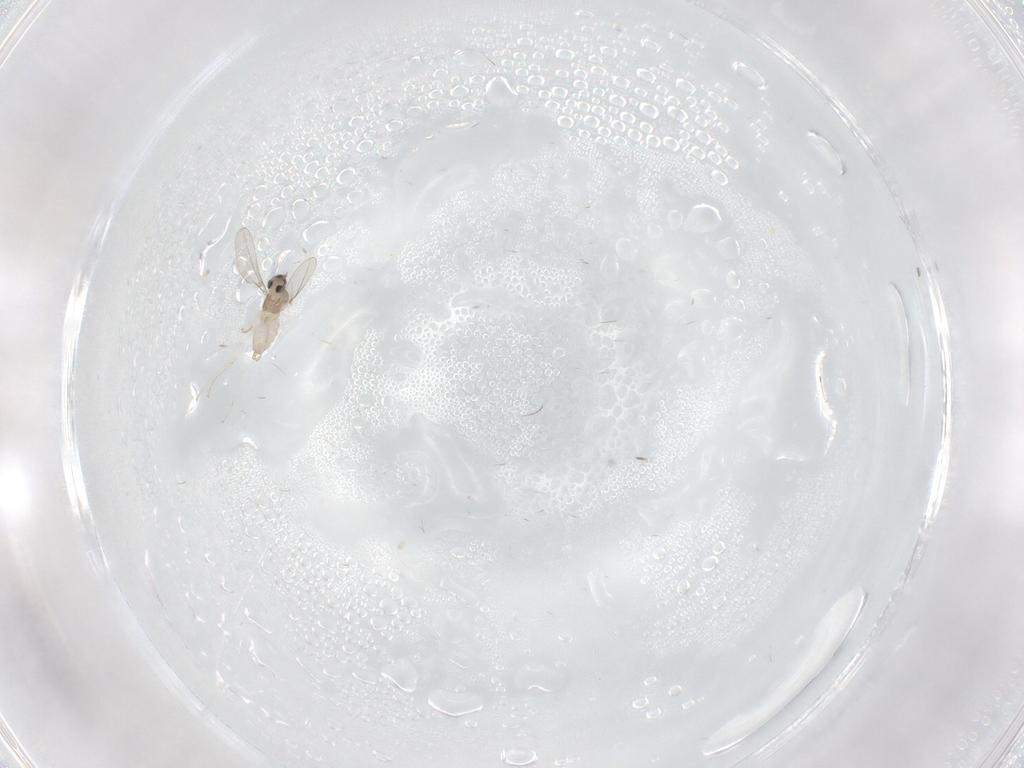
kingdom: Animalia
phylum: Arthropoda
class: Insecta
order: Diptera
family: Cecidomyiidae
